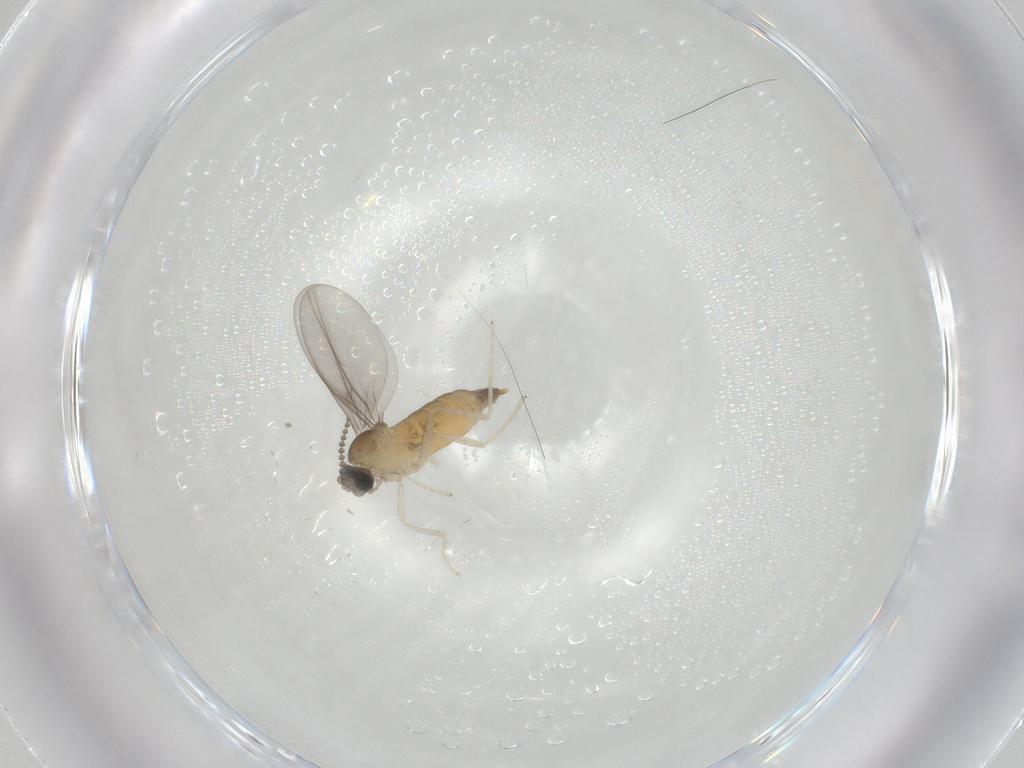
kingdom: Animalia
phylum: Arthropoda
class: Insecta
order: Diptera
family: Cecidomyiidae
